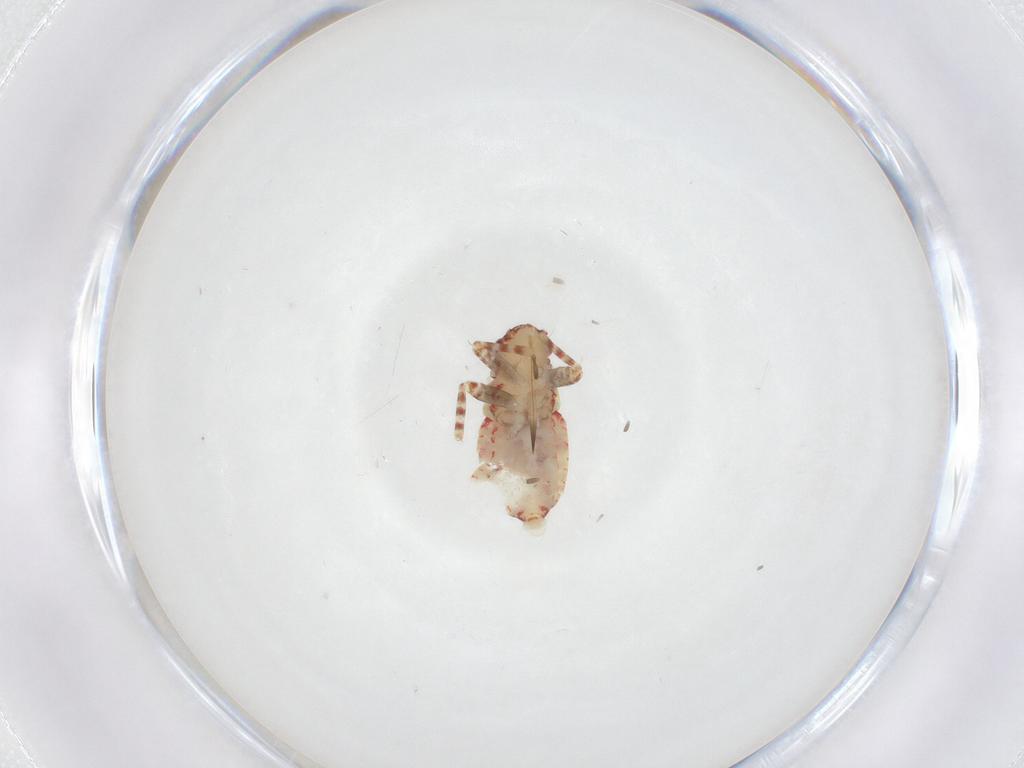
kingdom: Animalia
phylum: Arthropoda
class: Insecta
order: Hemiptera
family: Miridae
